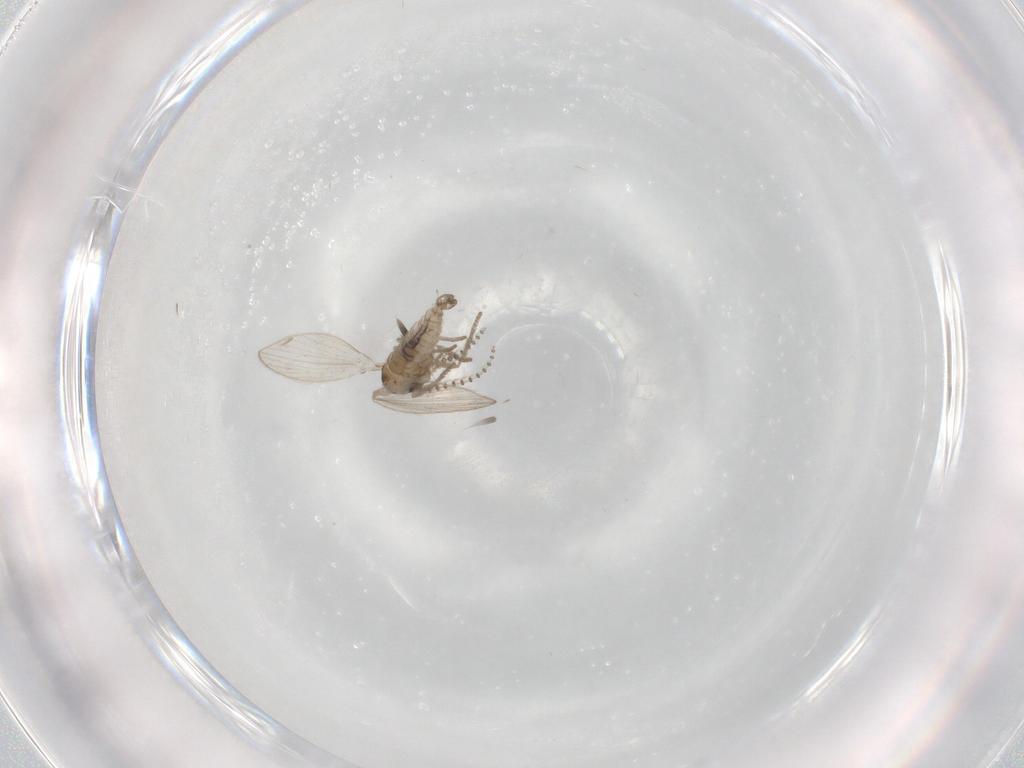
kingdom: Animalia
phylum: Arthropoda
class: Insecta
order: Diptera
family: Psychodidae
